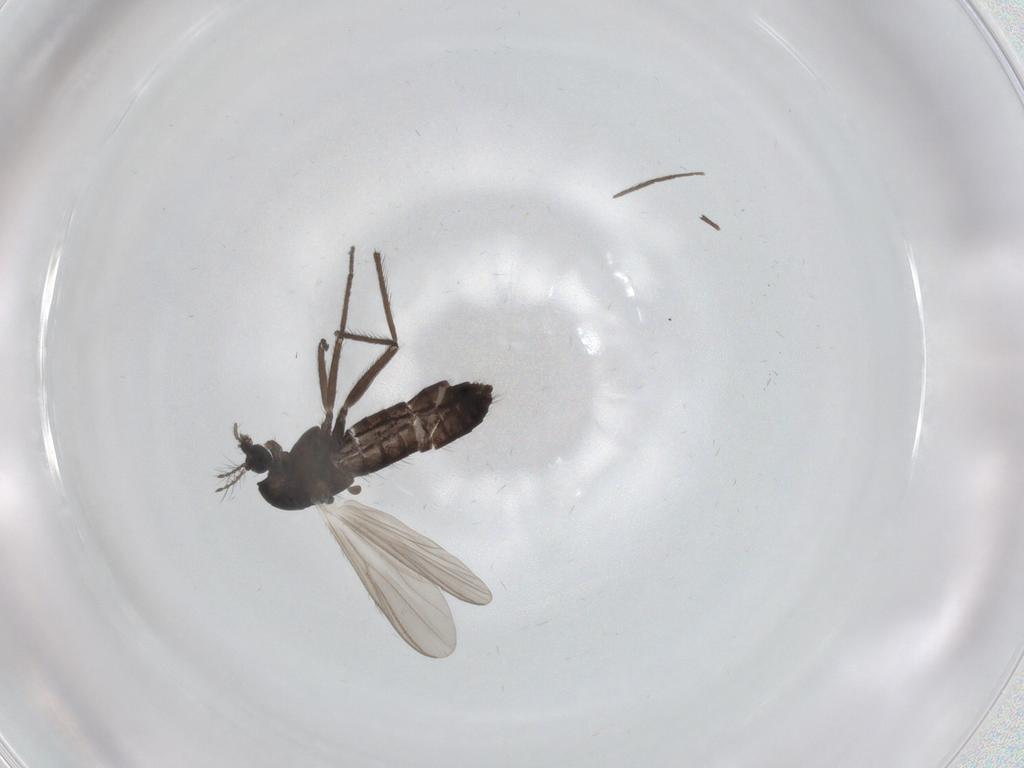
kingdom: Animalia
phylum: Arthropoda
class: Insecta
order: Diptera
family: Chironomidae
